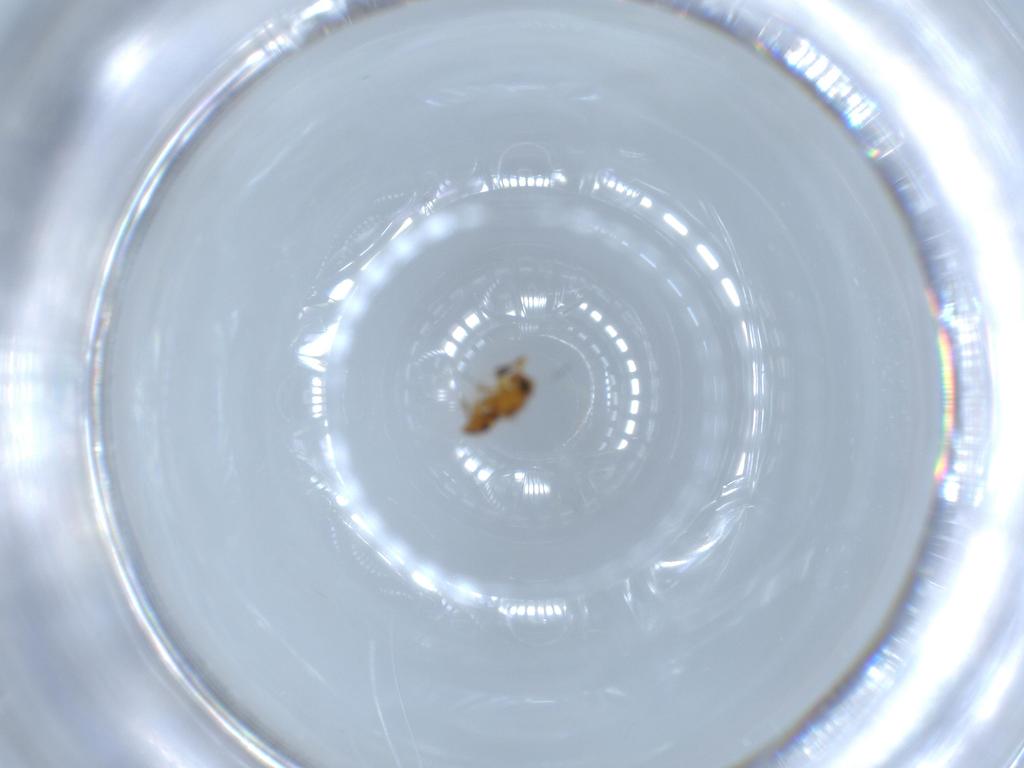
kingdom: Animalia
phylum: Arthropoda
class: Insecta
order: Hymenoptera
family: Scelionidae
